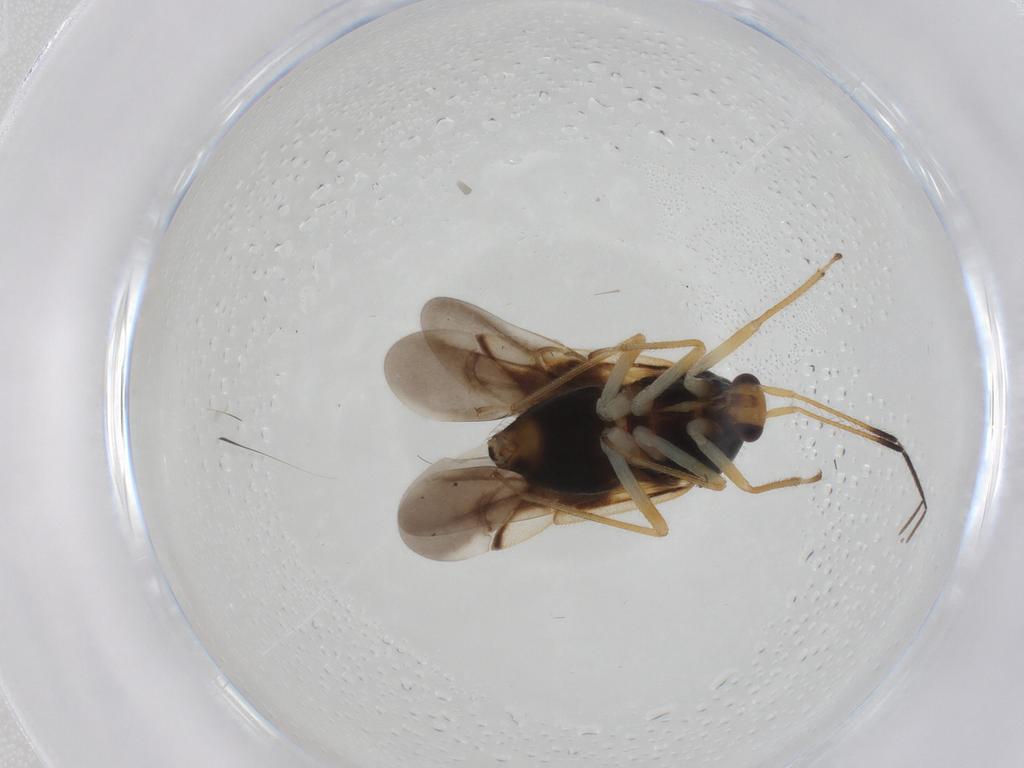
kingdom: Animalia
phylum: Arthropoda
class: Insecta
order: Hemiptera
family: Miridae
